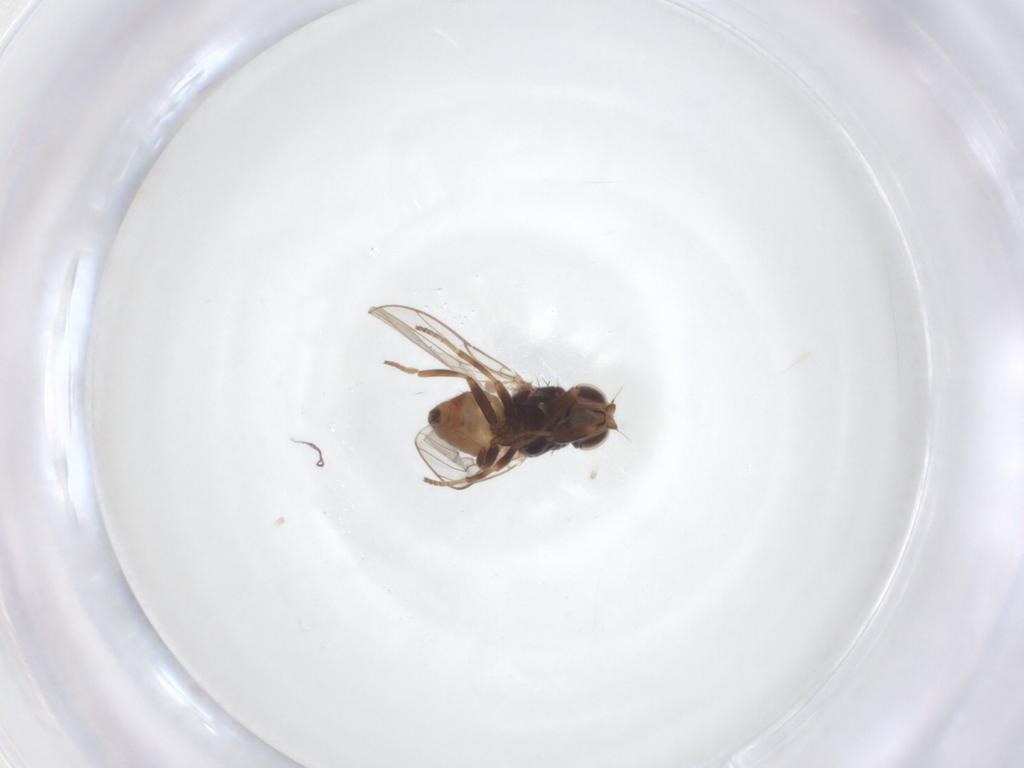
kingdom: Animalia
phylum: Arthropoda
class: Insecta
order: Diptera
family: Chloropidae
